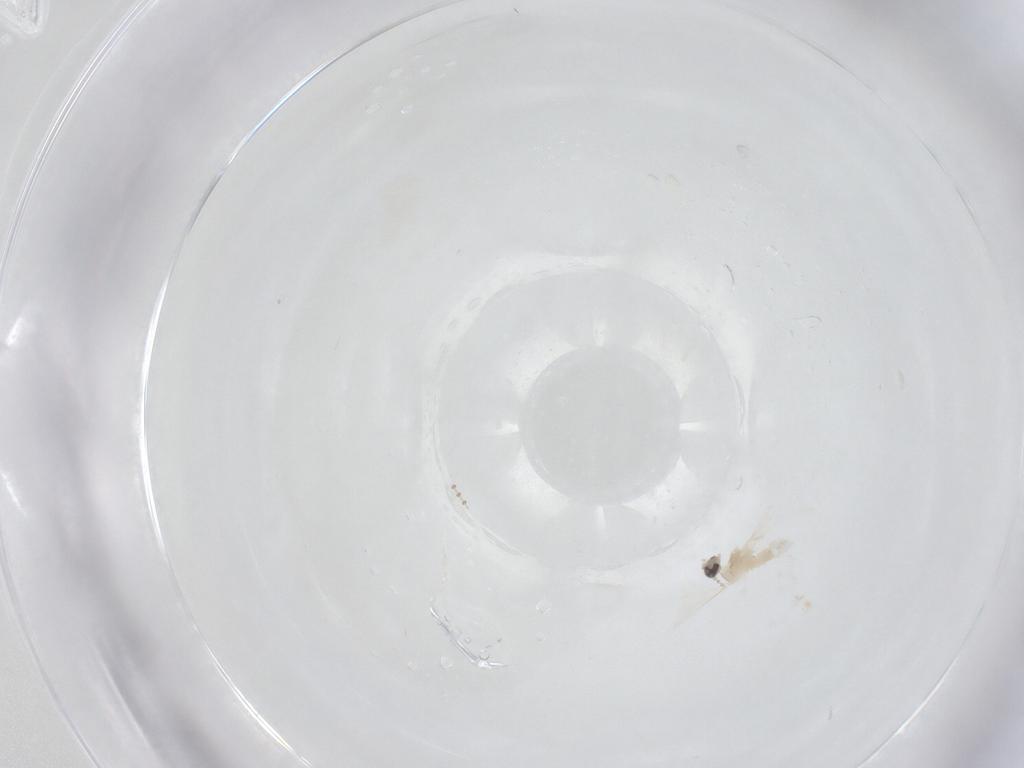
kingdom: Animalia
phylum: Arthropoda
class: Insecta
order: Diptera
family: Psychodidae
